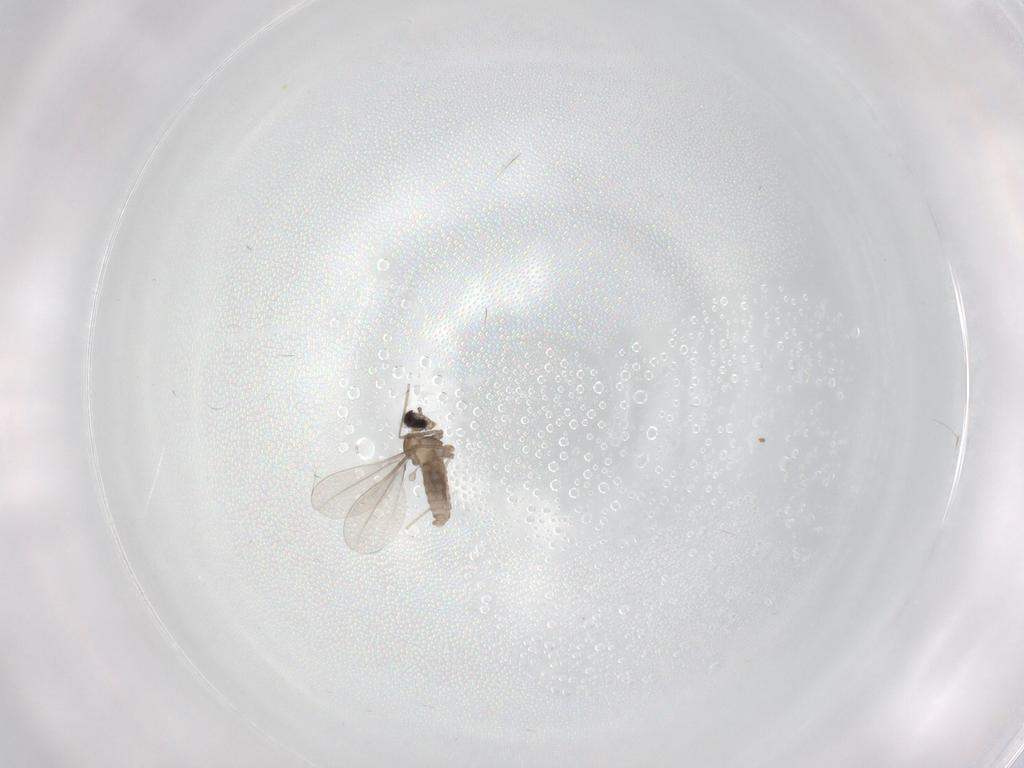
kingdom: Animalia
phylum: Arthropoda
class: Insecta
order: Diptera
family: Cecidomyiidae
